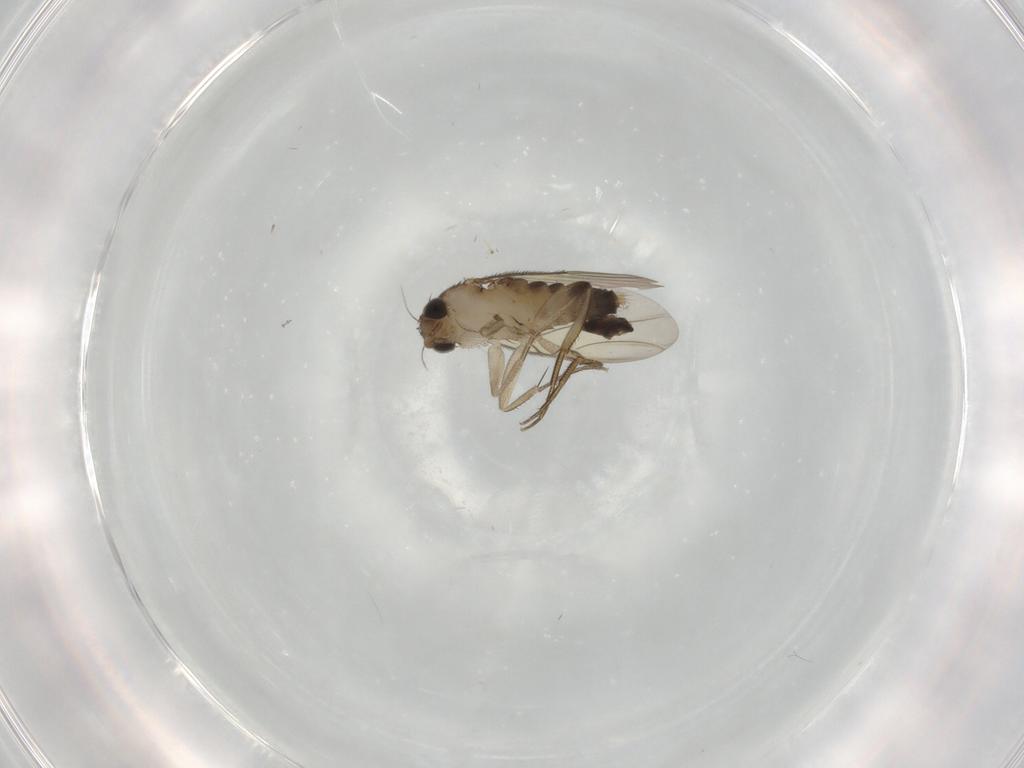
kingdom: Animalia
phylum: Arthropoda
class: Insecta
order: Diptera
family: Phoridae
